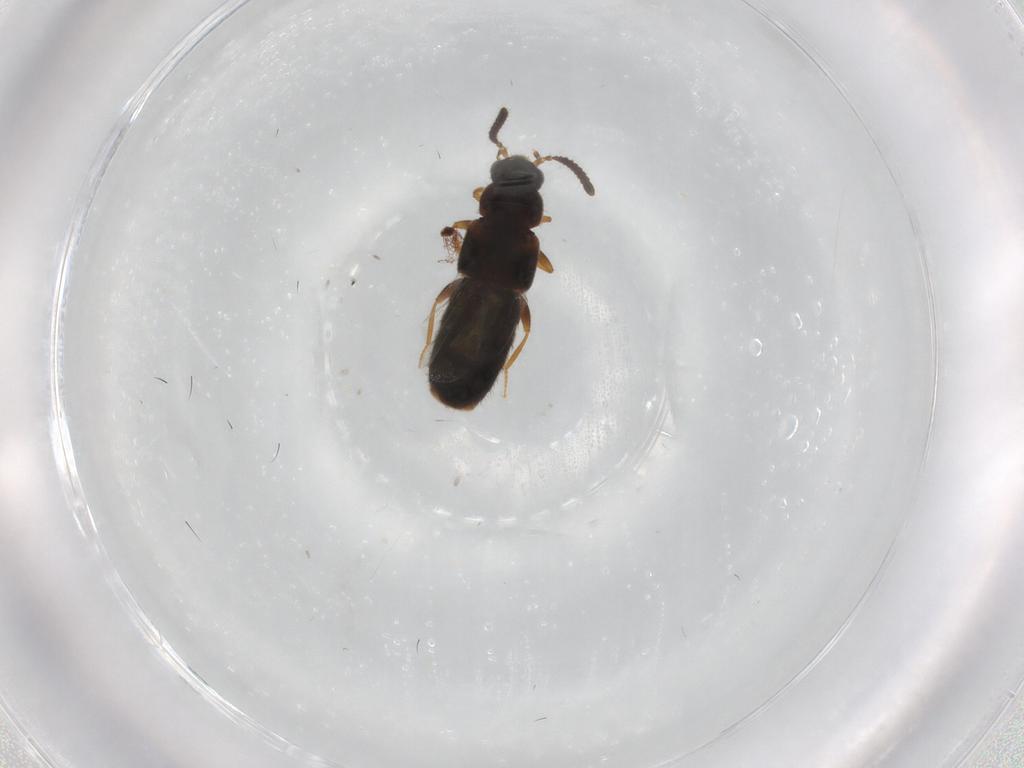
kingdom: Animalia
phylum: Arthropoda
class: Insecta
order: Coleoptera
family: Staphylinidae
